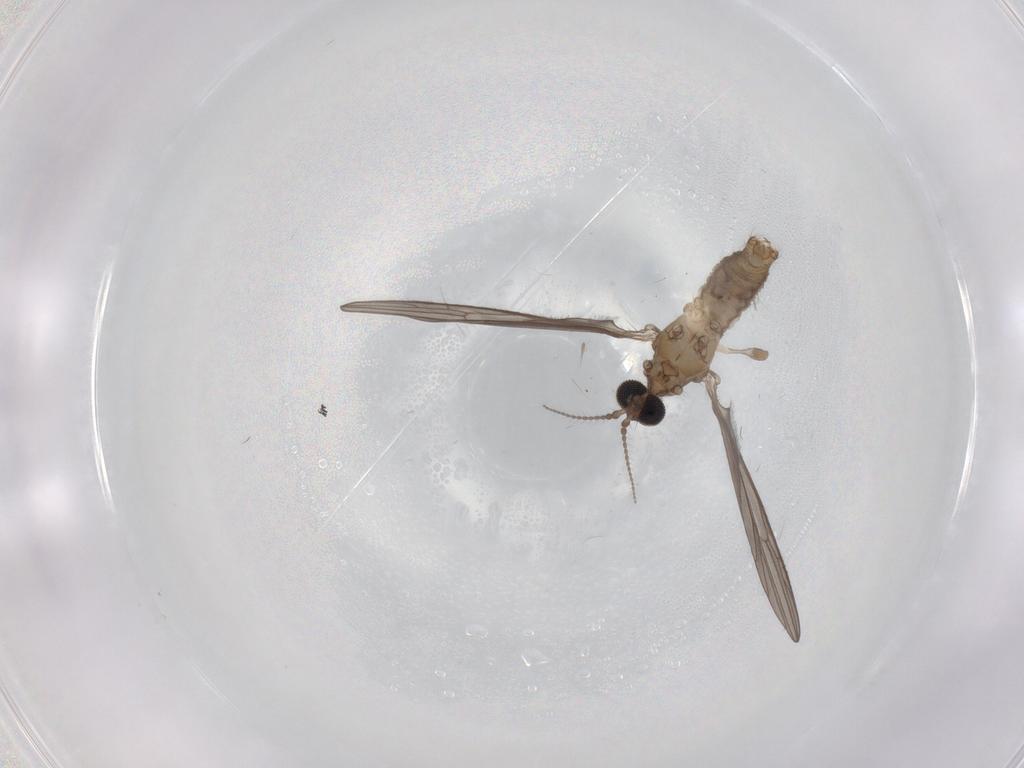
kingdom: Animalia
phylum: Arthropoda
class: Insecta
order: Diptera
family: Limoniidae
